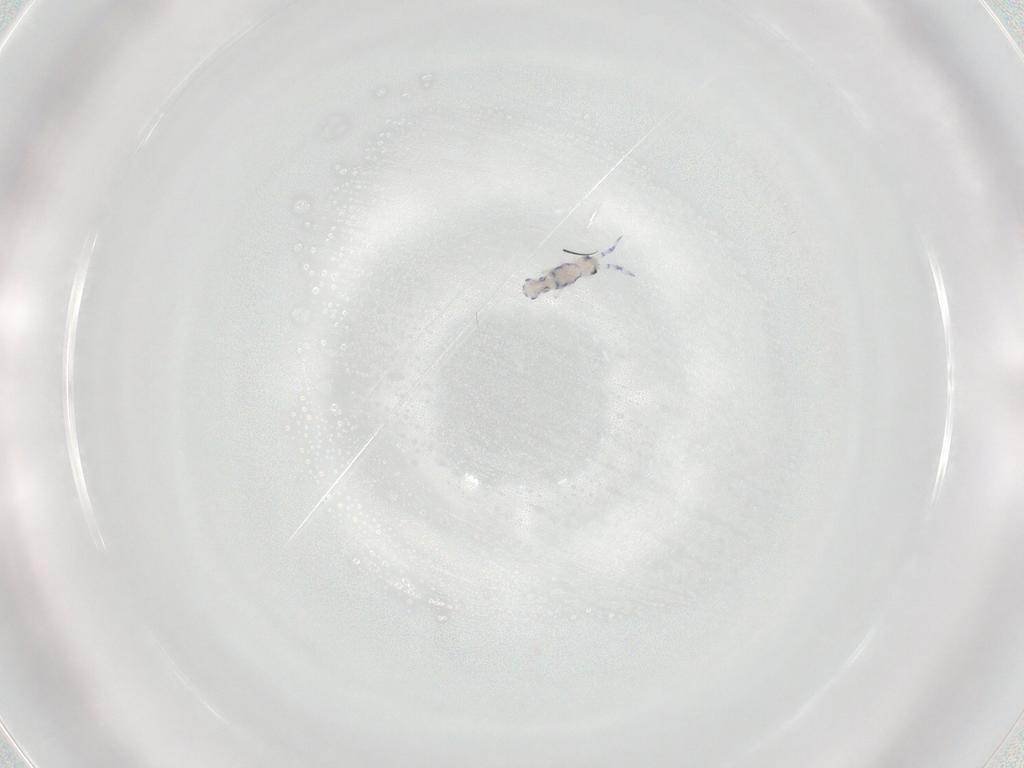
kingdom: Animalia
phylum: Arthropoda
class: Collembola
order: Entomobryomorpha
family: Entomobryidae
